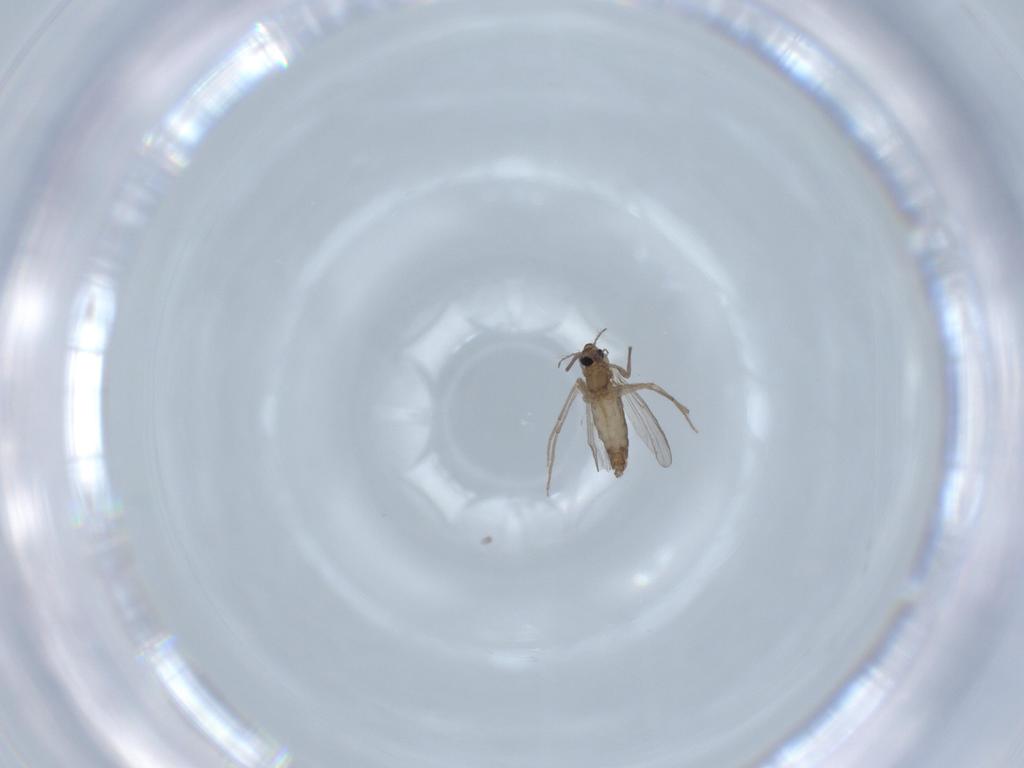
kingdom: Animalia
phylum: Arthropoda
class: Insecta
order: Diptera
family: Chironomidae
